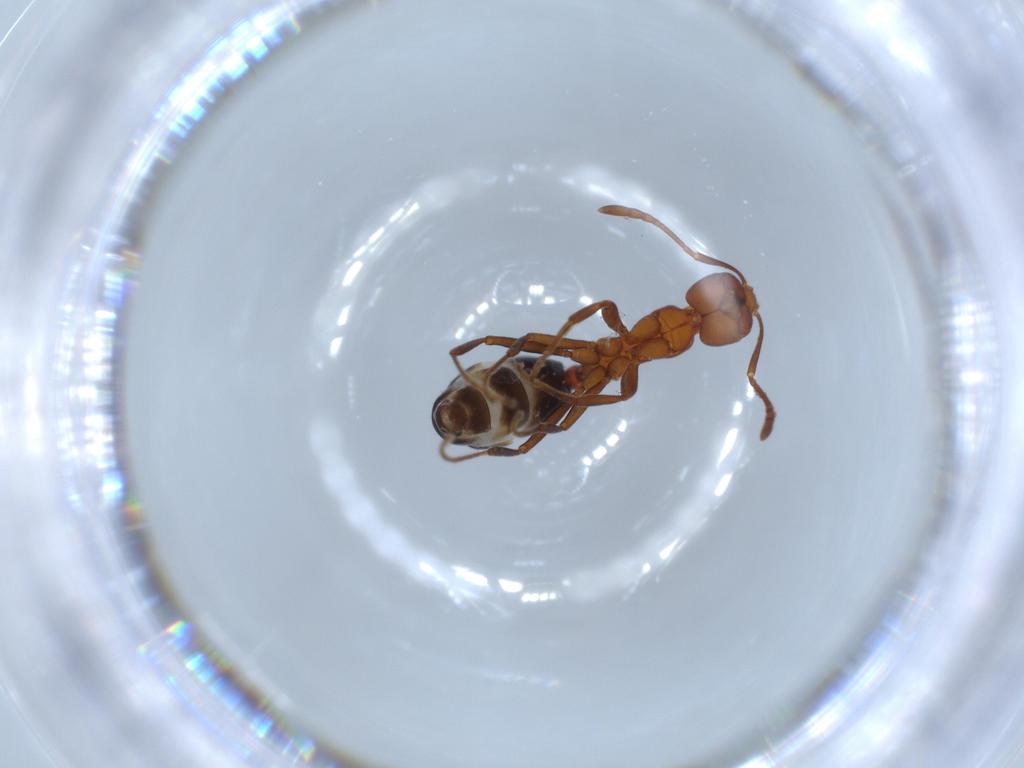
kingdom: Animalia
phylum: Arthropoda
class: Insecta
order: Hymenoptera
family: Formicidae
